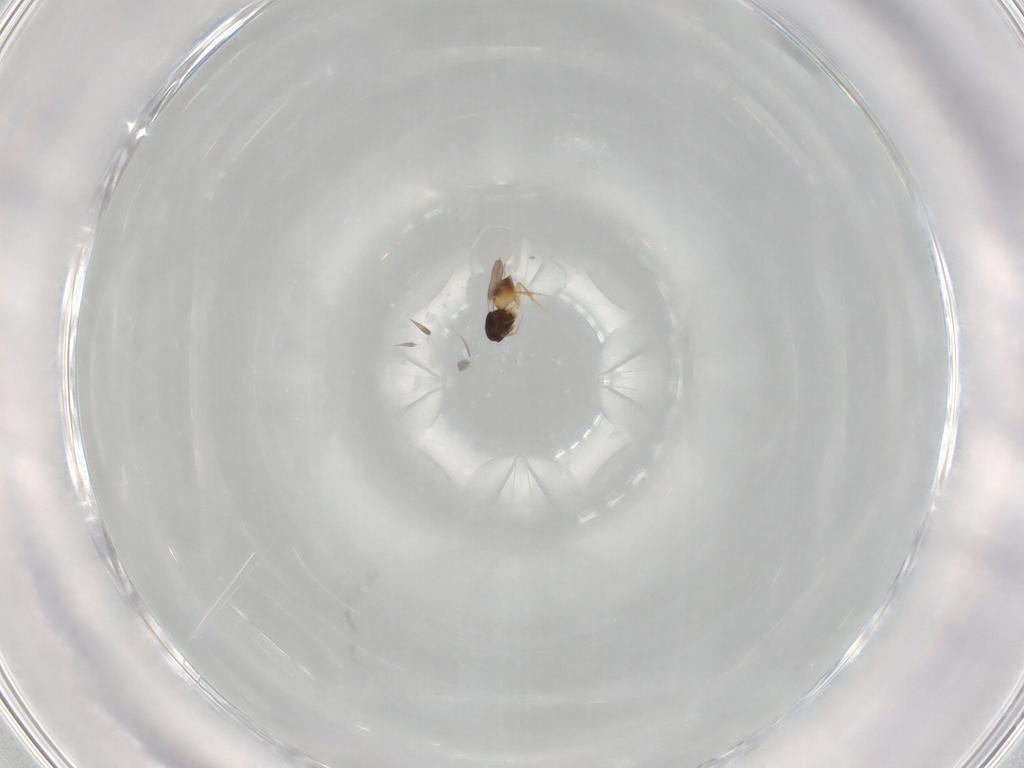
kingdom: Animalia
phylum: Arthropoda
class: Insecta
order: Hymenoptera
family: Ichneumonidae
